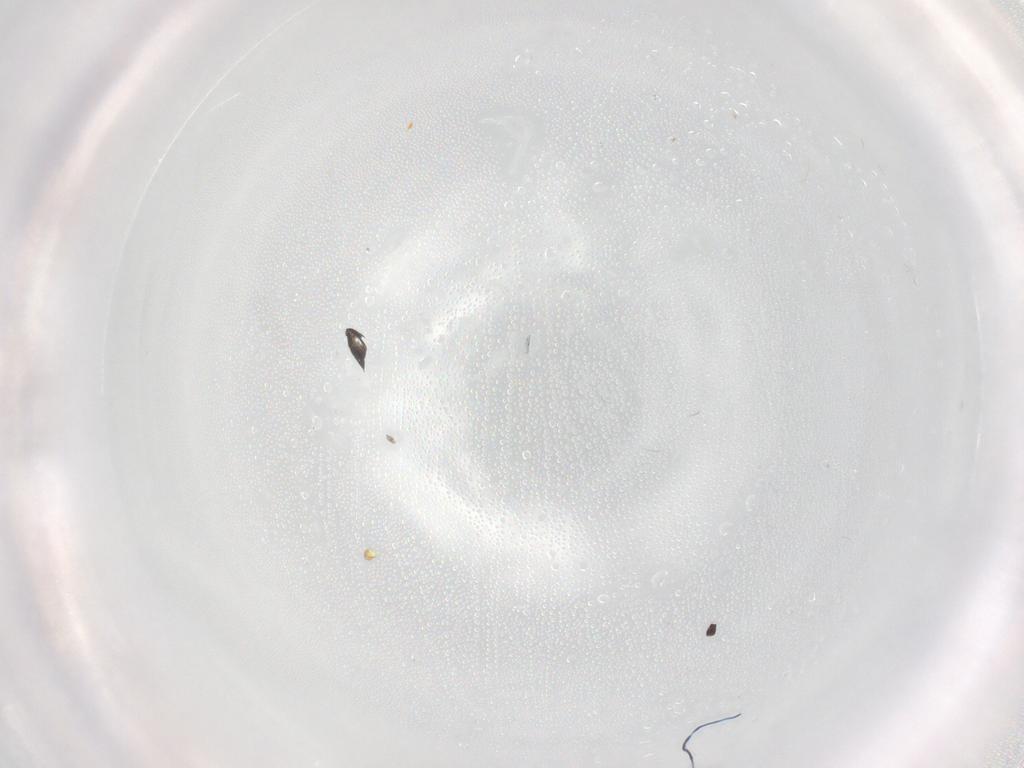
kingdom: Animalia
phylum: Arthropoda
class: Insecta
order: Hymenoptera
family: Scelionidae
